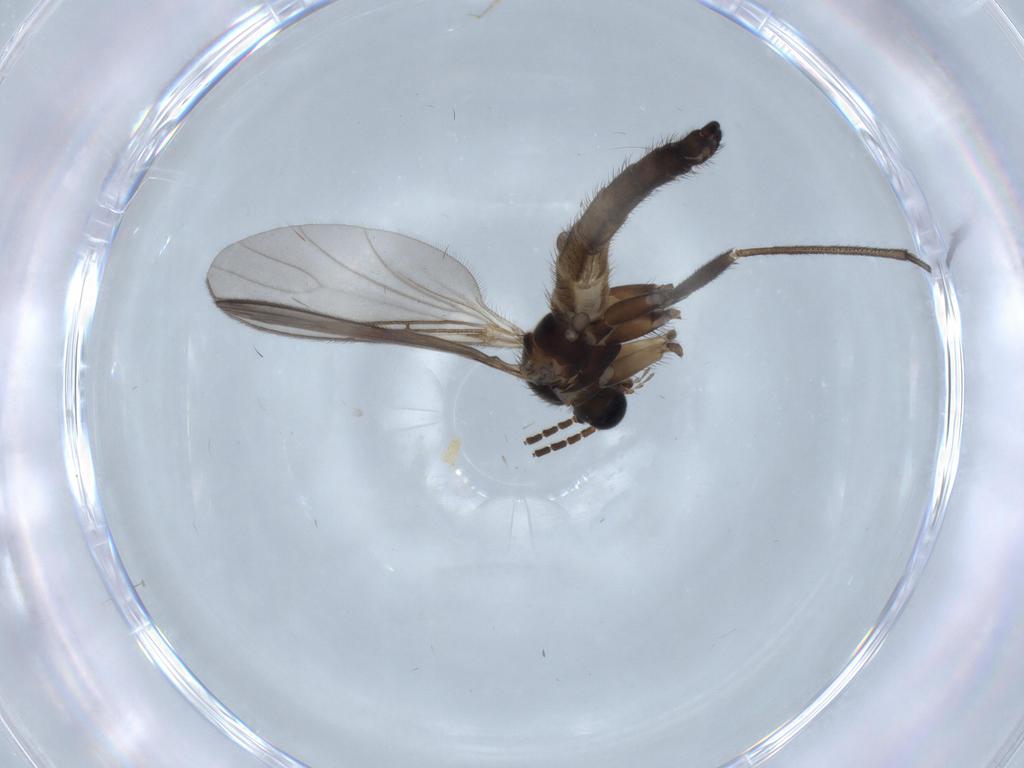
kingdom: Animalia
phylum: Arthropoda
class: Insecta
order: Diptera
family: Sciaridae
